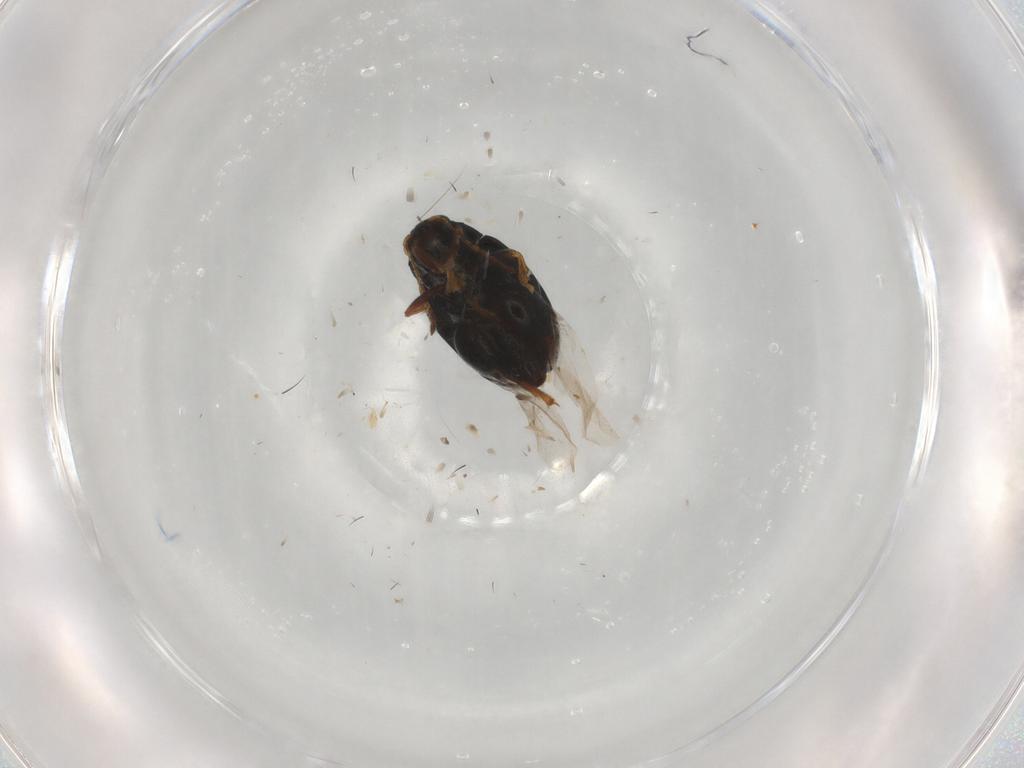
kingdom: Animalia
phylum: Arthropoda
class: Insecta
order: Coleoptera
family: Chrysomelidae
